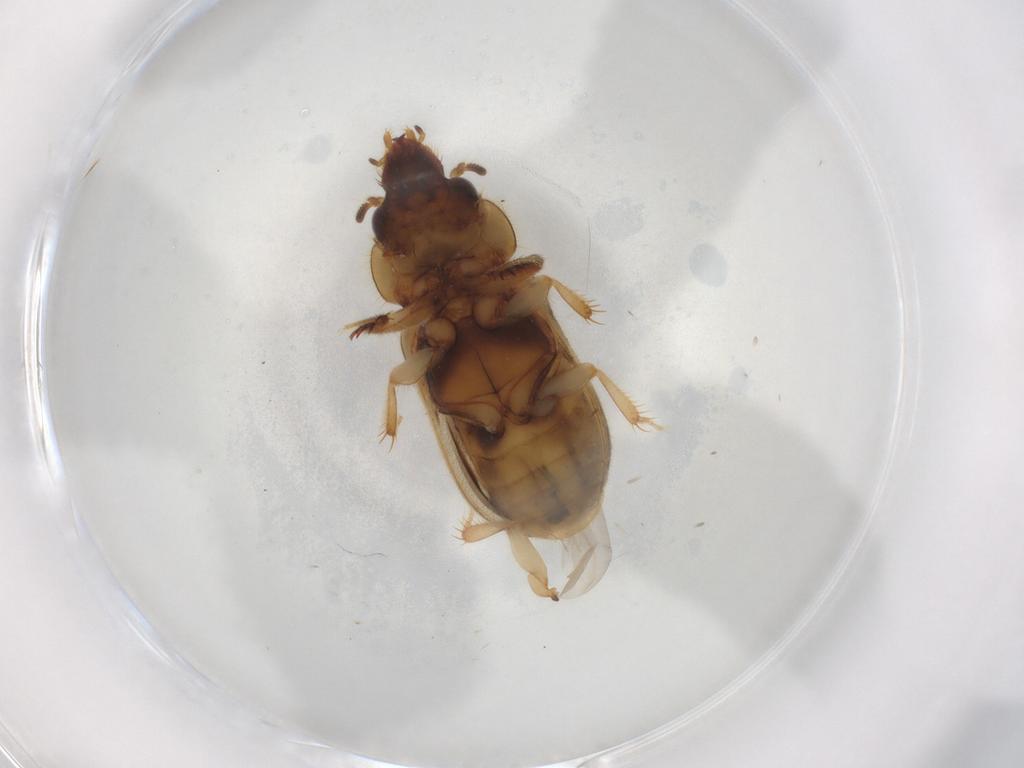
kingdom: Animalia
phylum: Arthropoda
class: Insecta
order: Coleoptera
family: Heteroceridae
